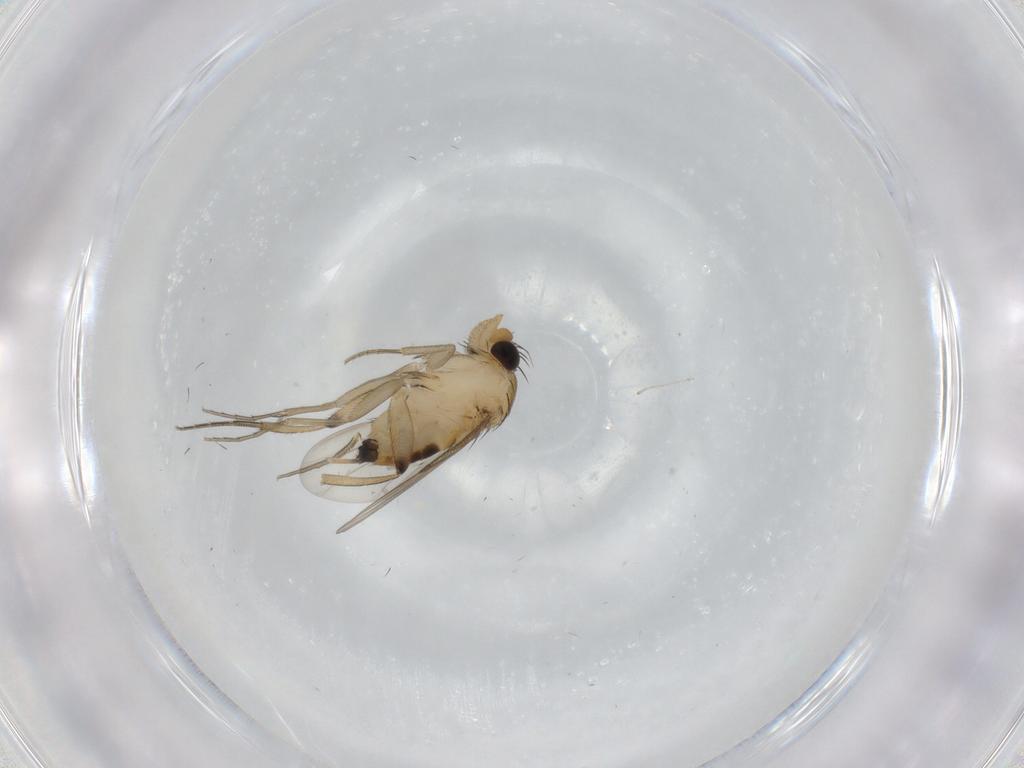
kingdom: Animalia
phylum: Arthropoda
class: Insecta
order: Diptera
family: Phoridae
